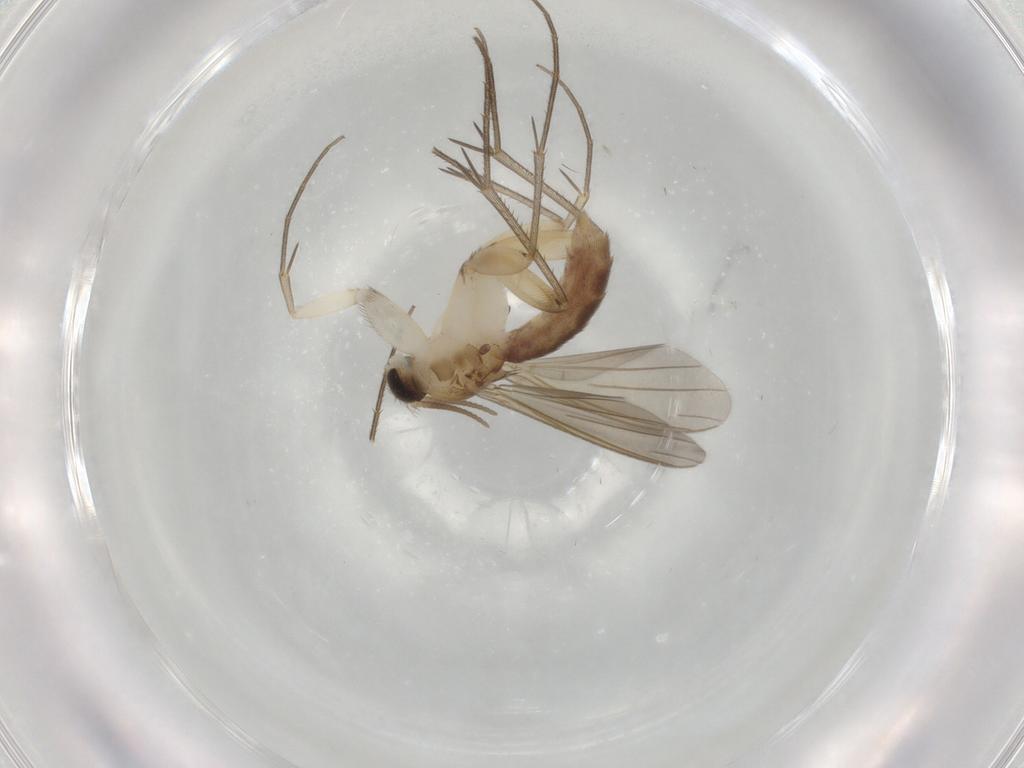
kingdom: Animalia
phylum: Arthropoda
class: Insecta
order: Diptera
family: Mycetophilidae
